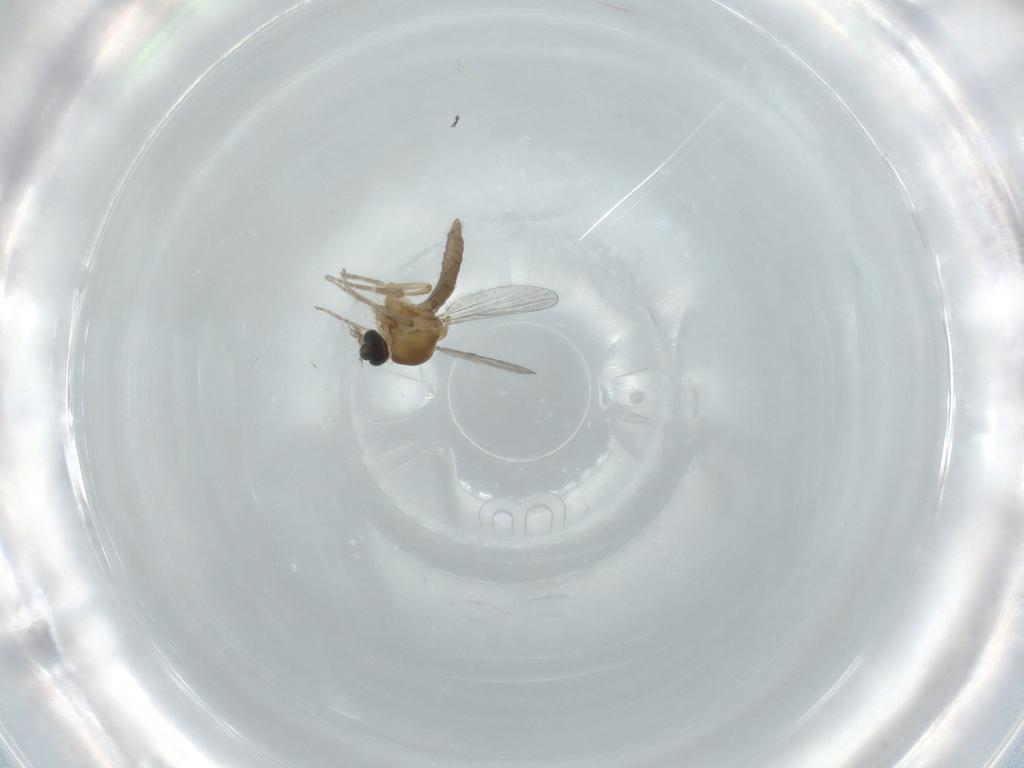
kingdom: Animalia
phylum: Arthropoda
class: Insecta
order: Diptera
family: Ceratopogonidae
